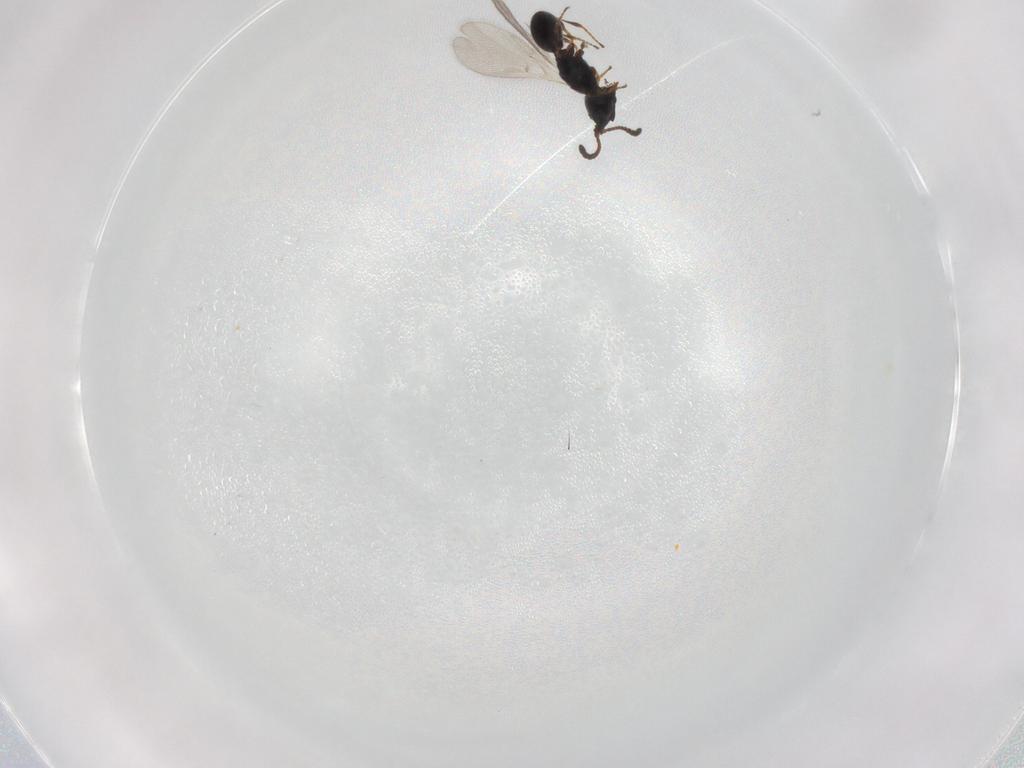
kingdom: Animalia
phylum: Arthropoda
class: Insecta
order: Hymenoptera
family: Diapriidae
